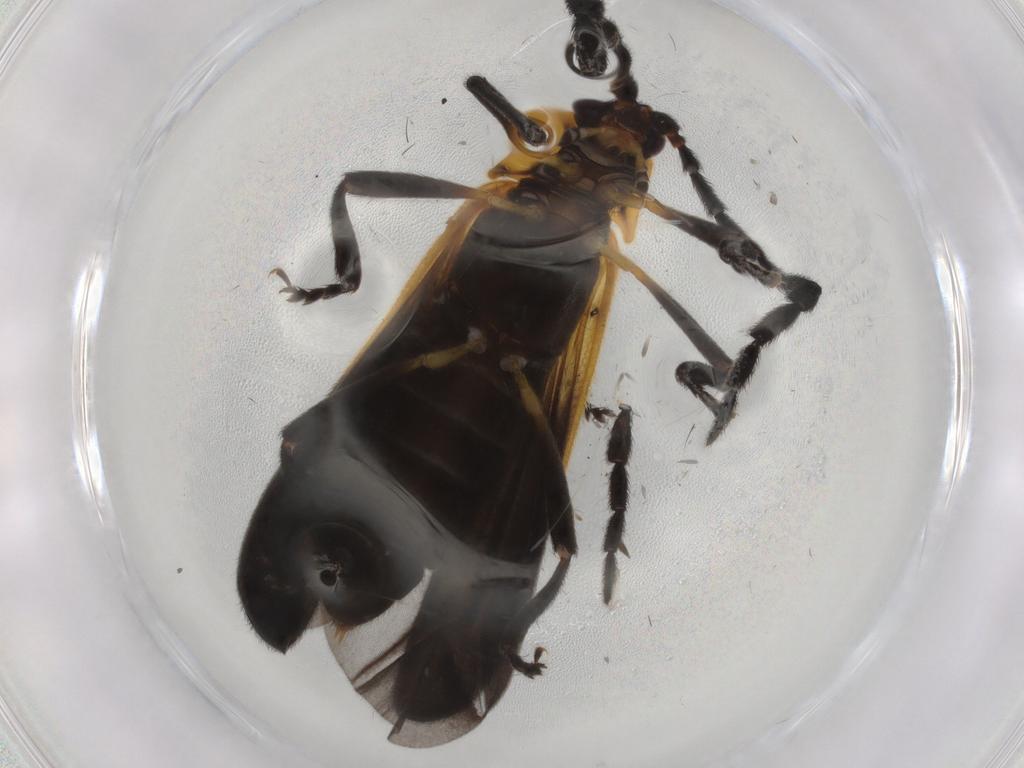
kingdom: Animalia
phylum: Arthropoda
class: Insecta
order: Coleoptera
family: Lycidae
